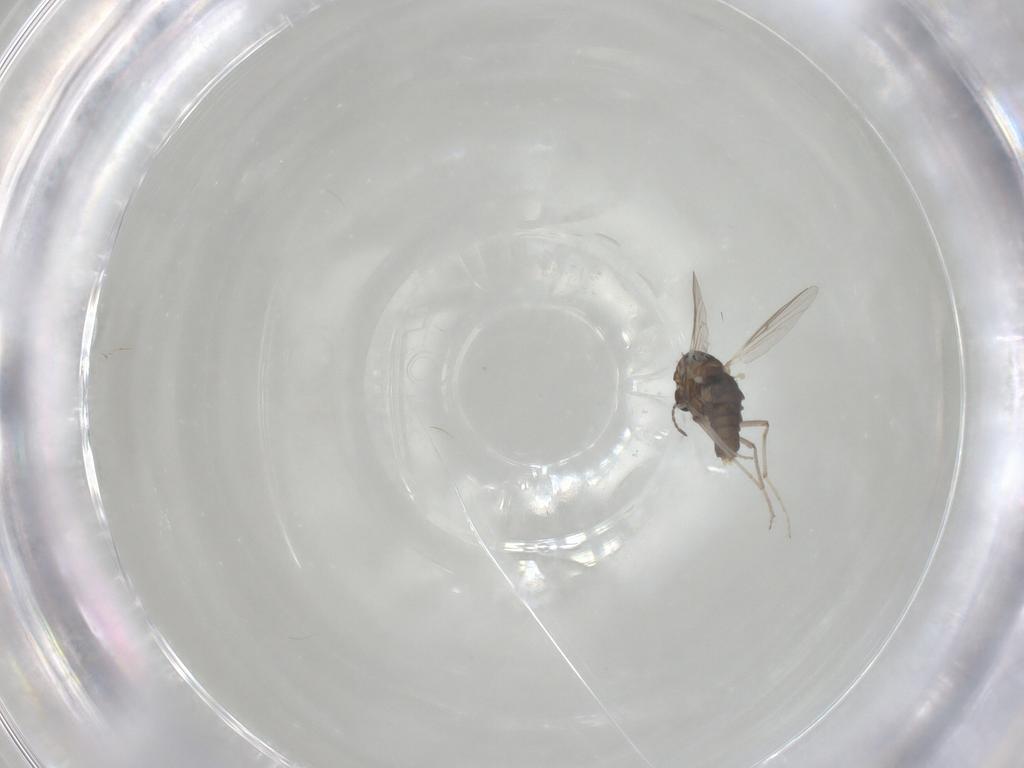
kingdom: Animalia
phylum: Arthropoda
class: Insecta
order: Diptera
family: Chironomidae
